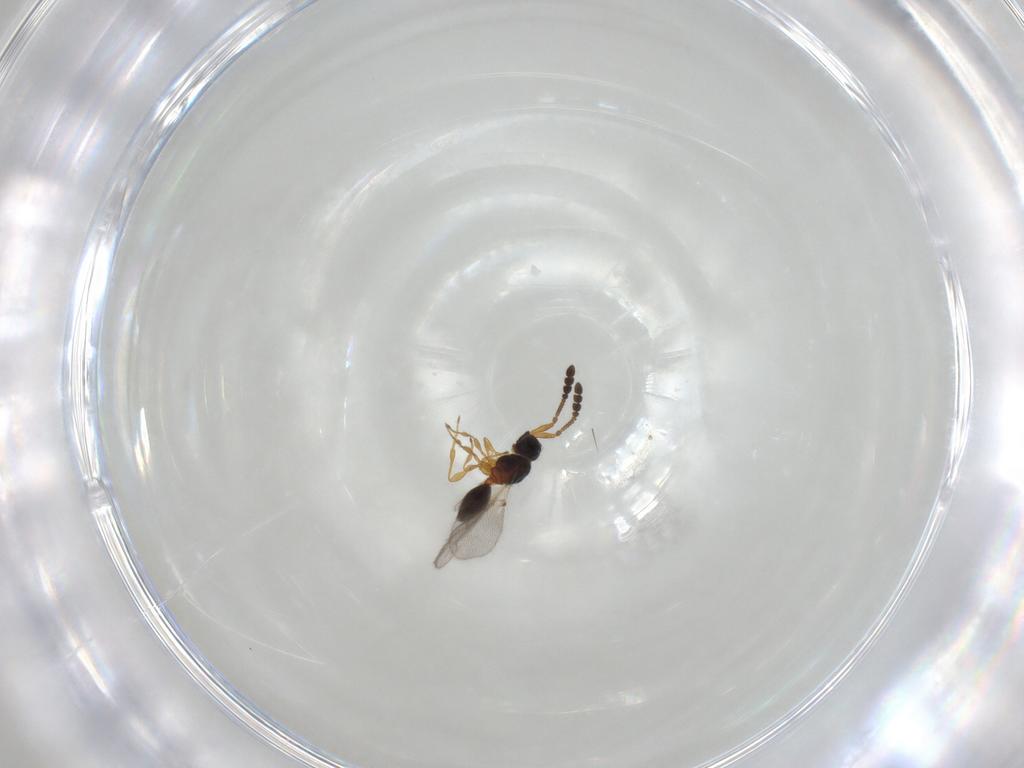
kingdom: Animalia
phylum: Arthropoda
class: Insecta
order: Hymenoptera
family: Diapriidae
